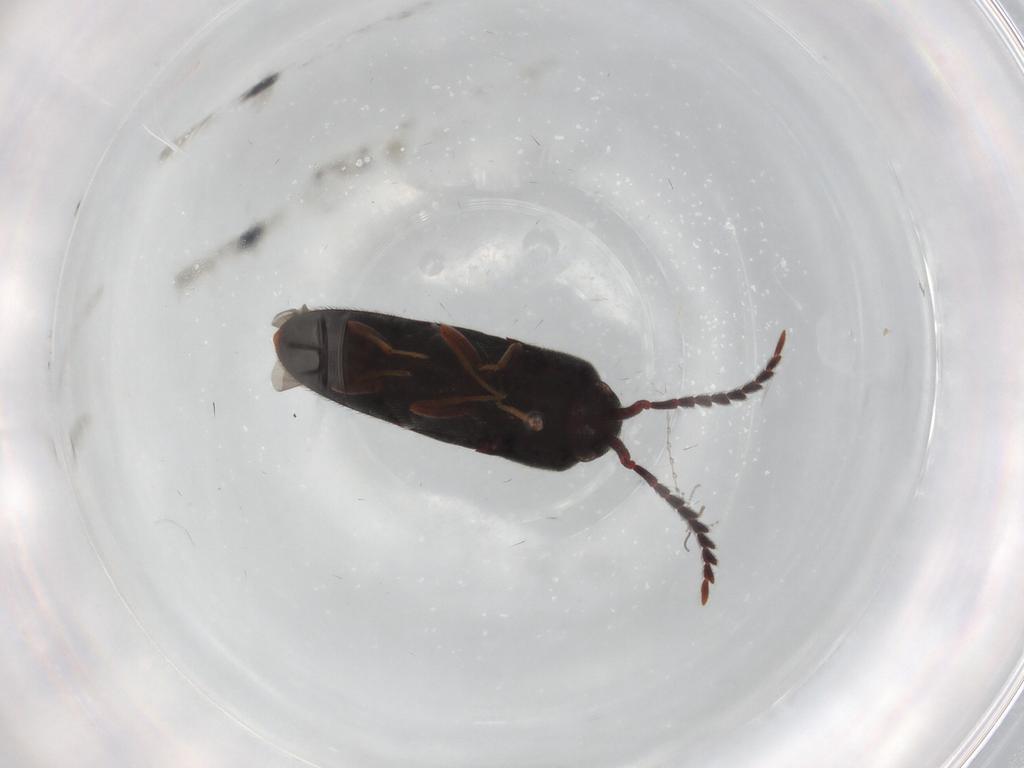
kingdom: Animalia
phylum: Arthropoda
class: Insecta
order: Coleoptera
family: Eucnemidae
